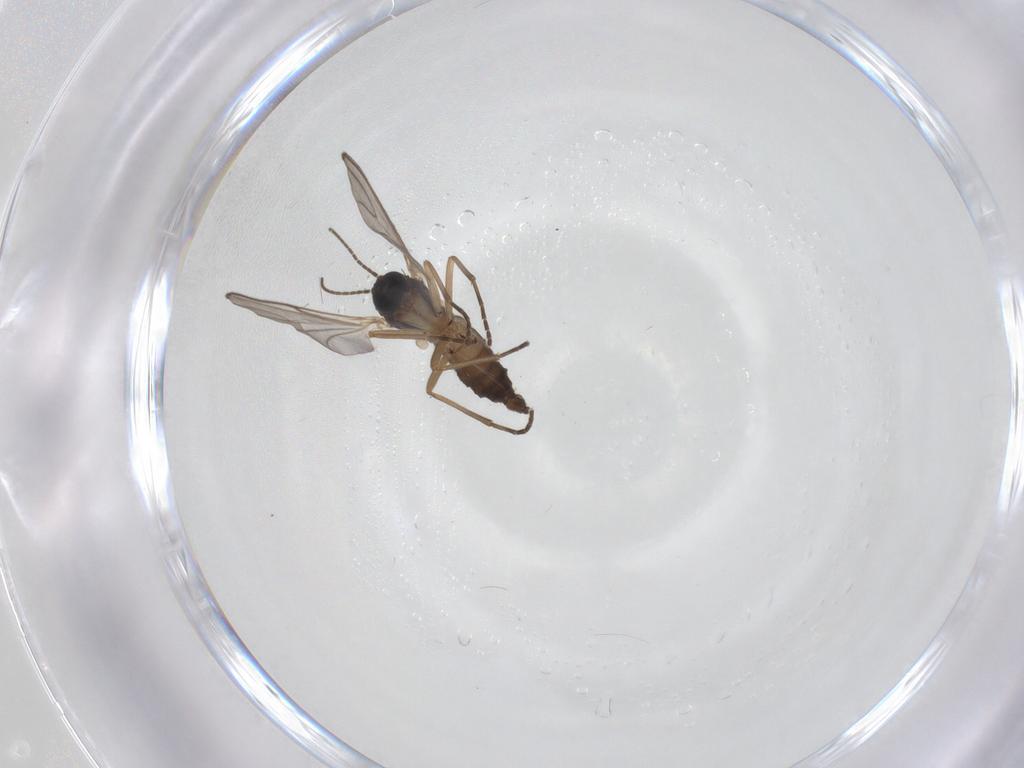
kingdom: Animalia
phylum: Arthropoda
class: Insecta
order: Diptera
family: Sciaridae
